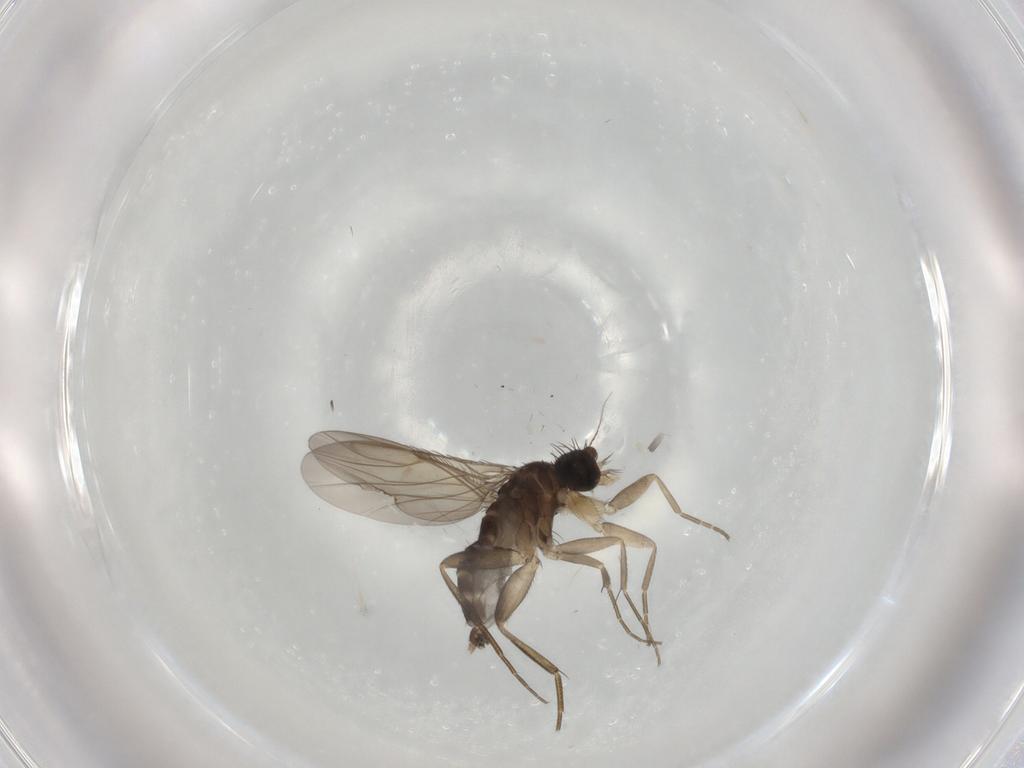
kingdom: Animalia
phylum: Arthropoda
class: Insecta
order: Diptera
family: Phoridae
